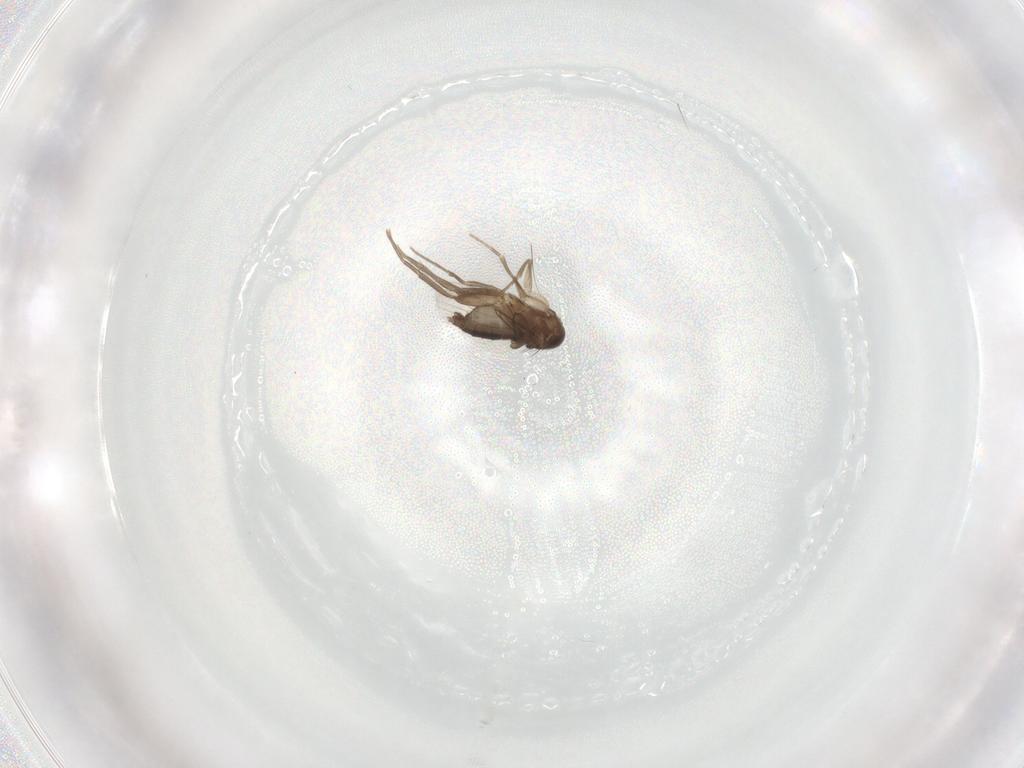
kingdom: Animalia
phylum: Arthropoda
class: Insecta
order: Diptera
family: Phoridae
